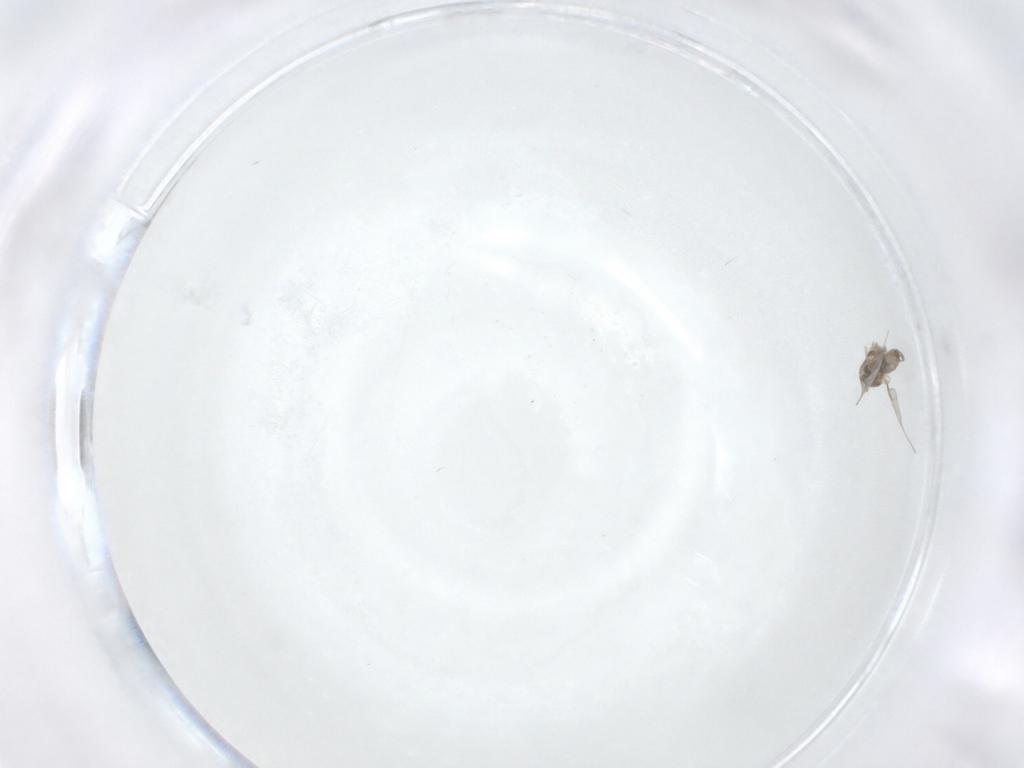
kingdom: Animalia
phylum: Arthropoda
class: Insecta
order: Diptera
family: Cecidomyiidae
